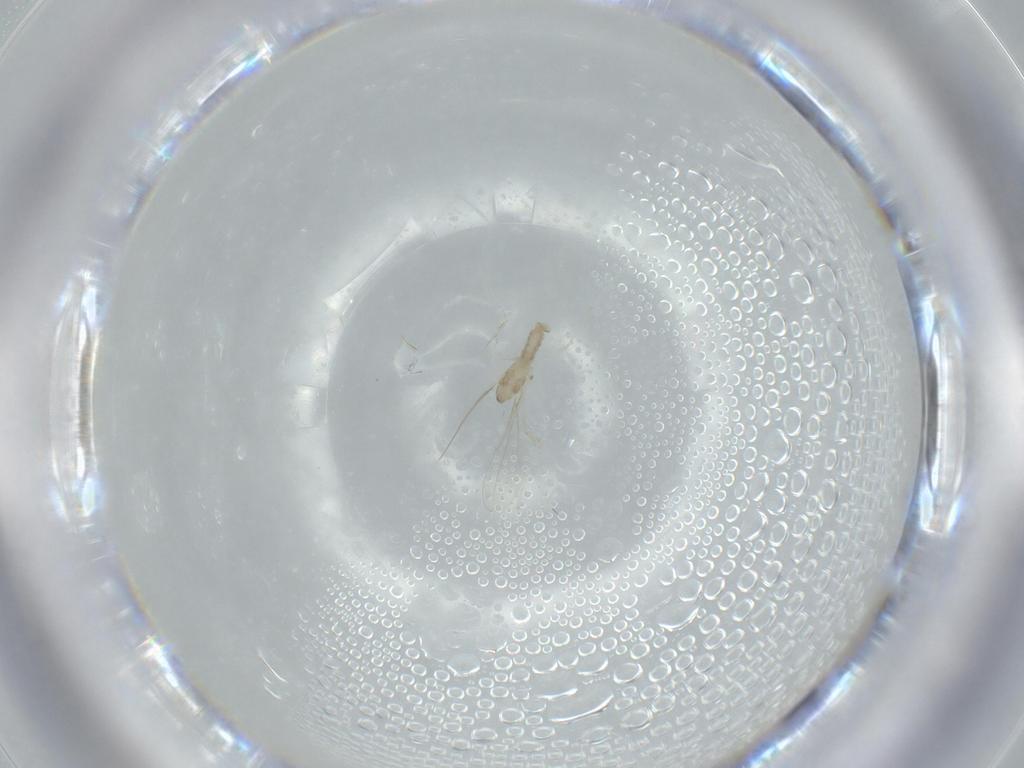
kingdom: Animalia
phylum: Arthropoda
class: Insecta
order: Diptera
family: Cecidomyiidae
